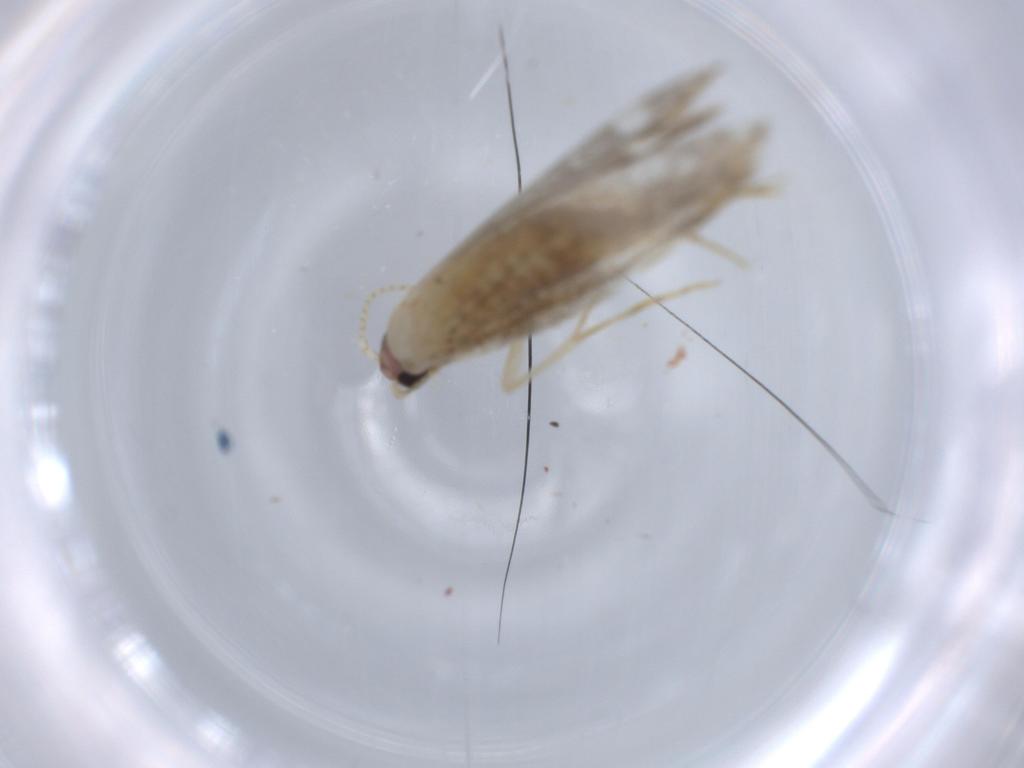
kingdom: Animalia
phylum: Arthropoda
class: Insecta
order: Lepidoptera
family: Tineidae
